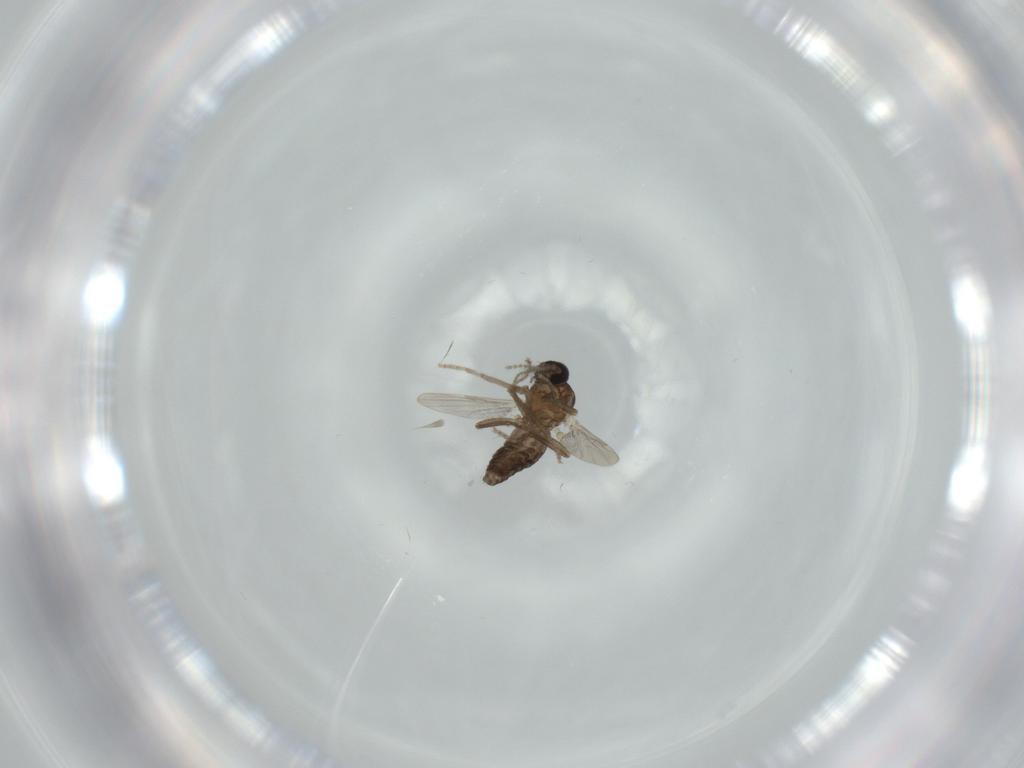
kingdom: Animalia
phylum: Arthropoda
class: Insecta
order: Diptera
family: Ceratopogonidae
